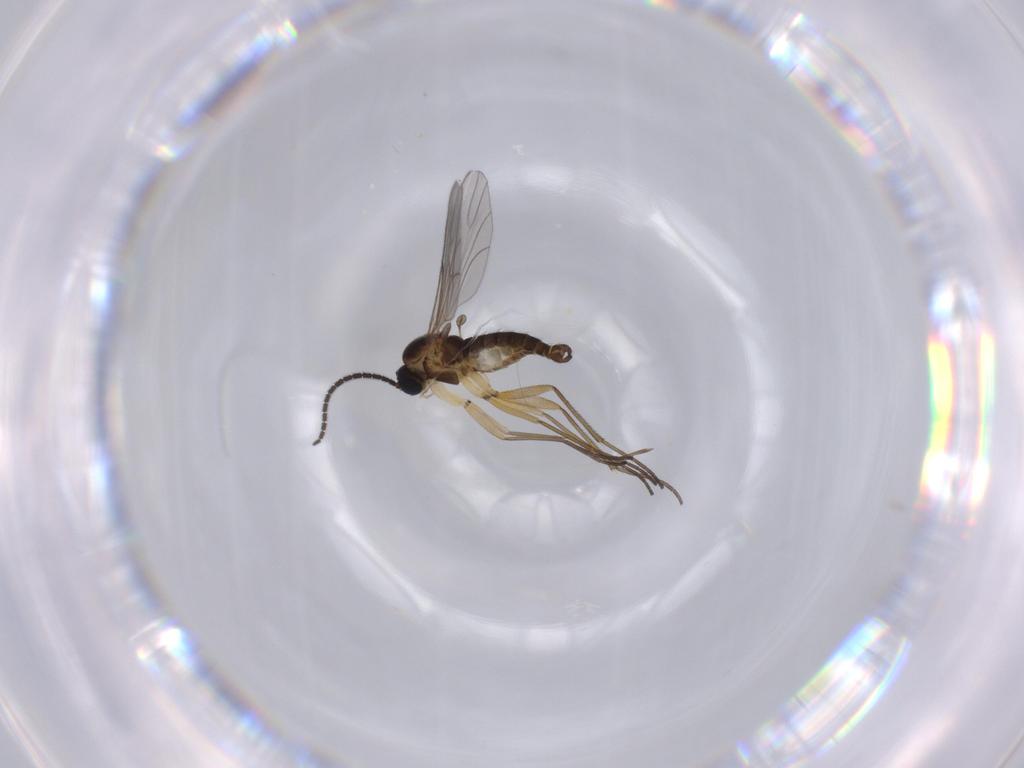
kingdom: Animalia
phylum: Arthropoda
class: Insecta
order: Diptera
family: Sciaridae
